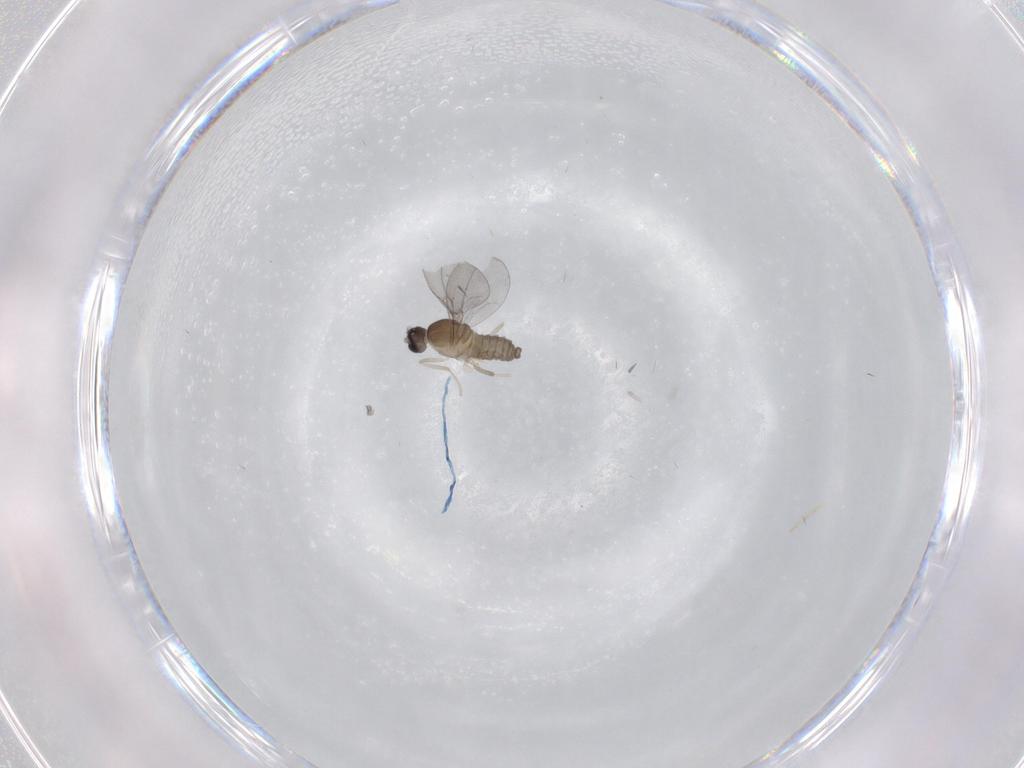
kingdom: Animalia
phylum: Arthropoda
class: Insecta
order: Diptera
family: Cecidomyiidae
